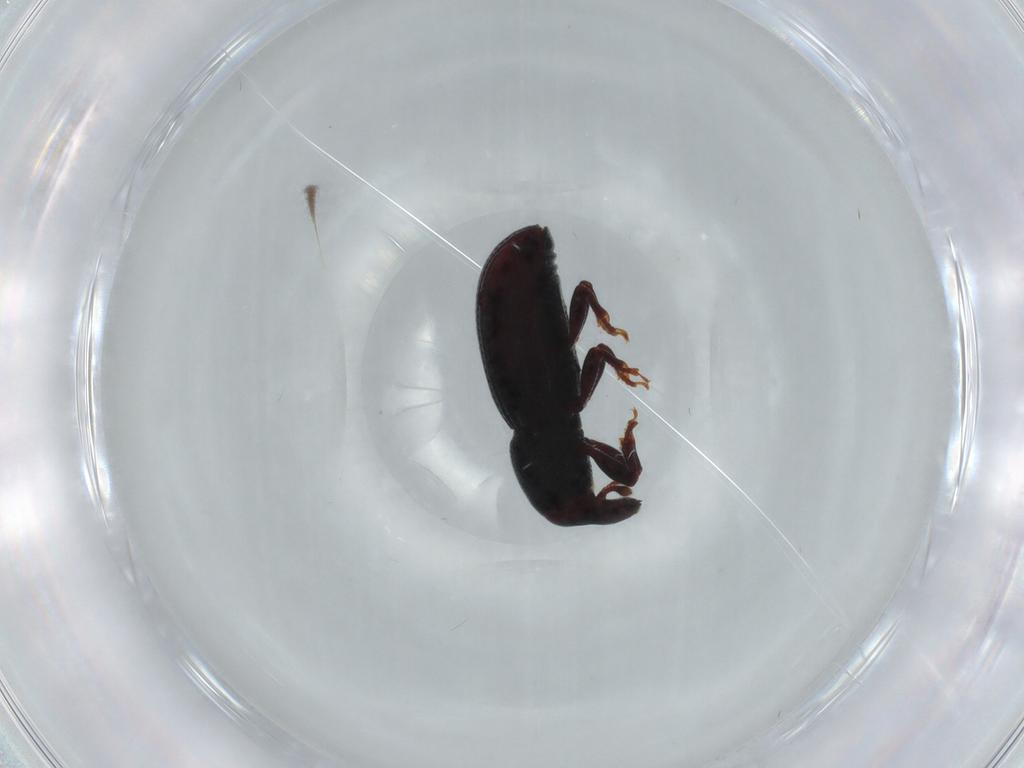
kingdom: Animalia
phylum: Arthropoda
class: Insecta
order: Coleoptera
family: Curculionidae
